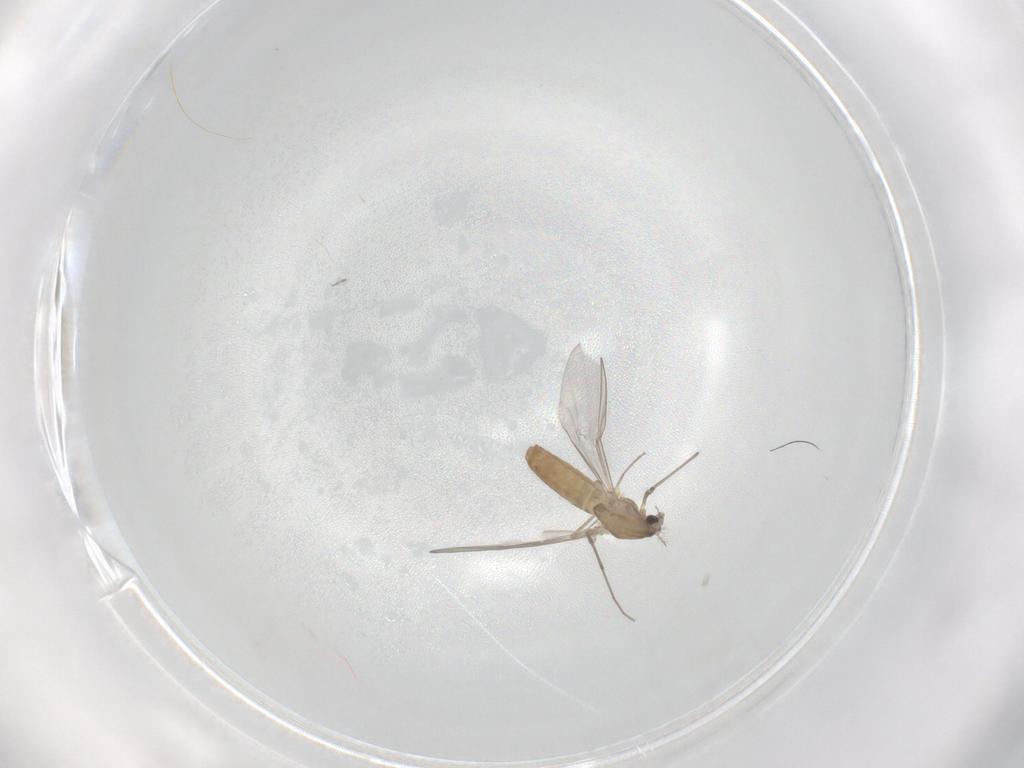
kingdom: Animalia
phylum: Arthropoda
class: Insecta
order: Diptera
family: Chironomidae
